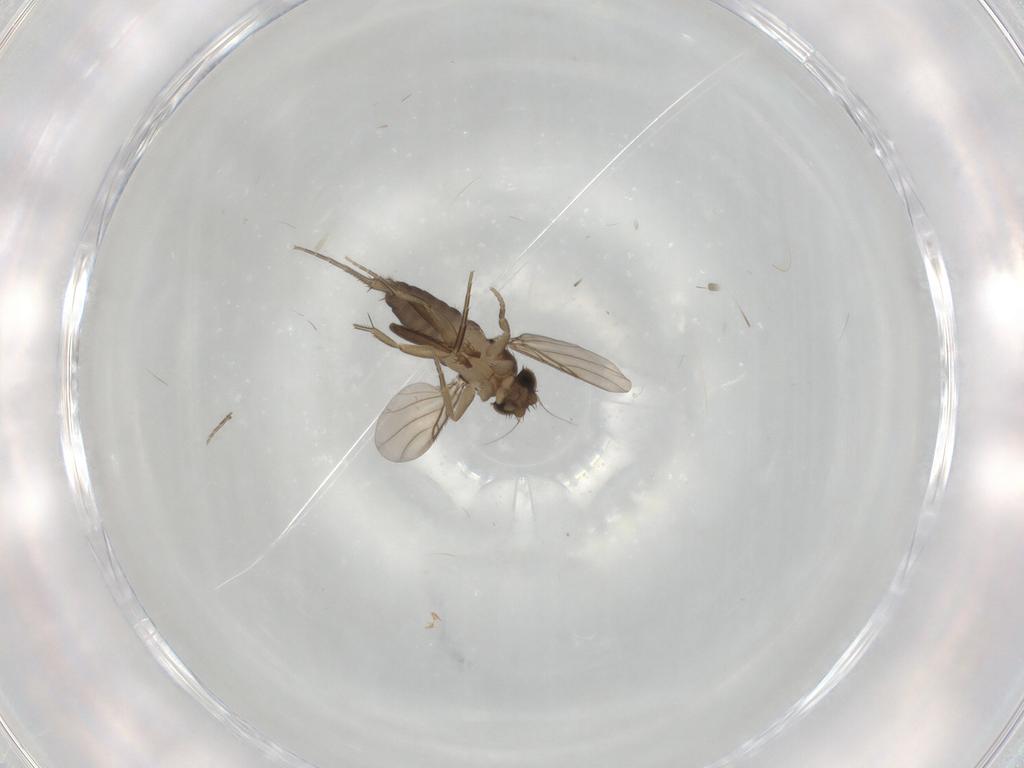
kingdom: Animalia
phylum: Arthropoda
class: Insecta
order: Diptera
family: Phoridae
